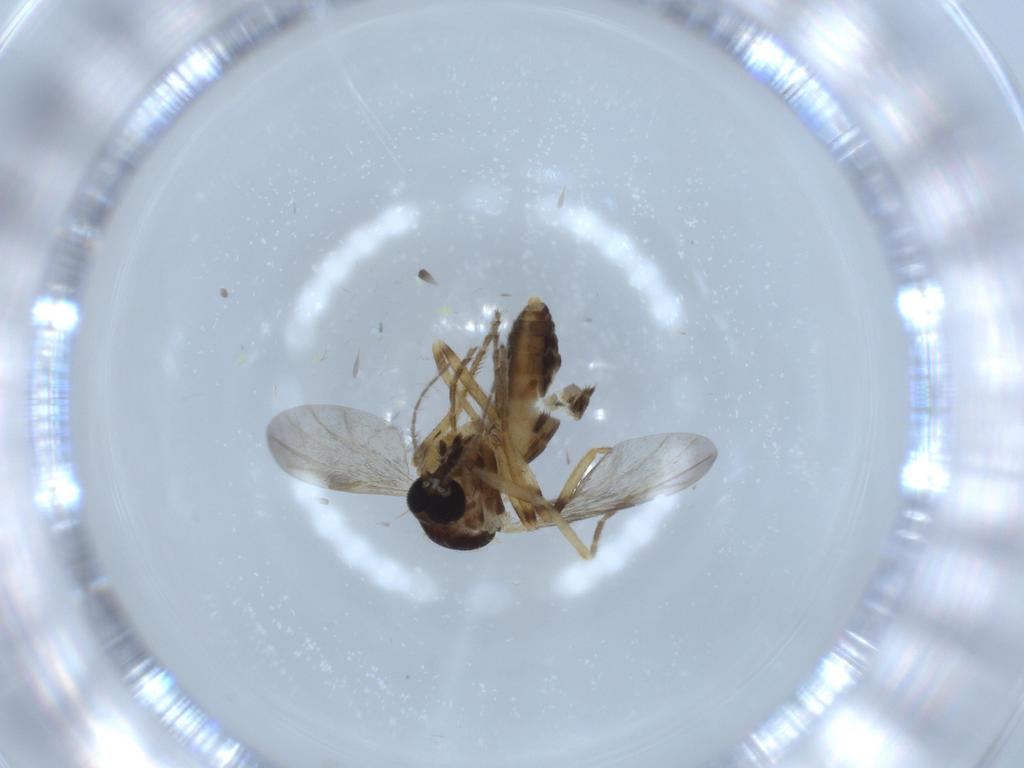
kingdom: Animalia
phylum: Arthropoda
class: Insecta
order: Diptera
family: Ceratopogonidae
